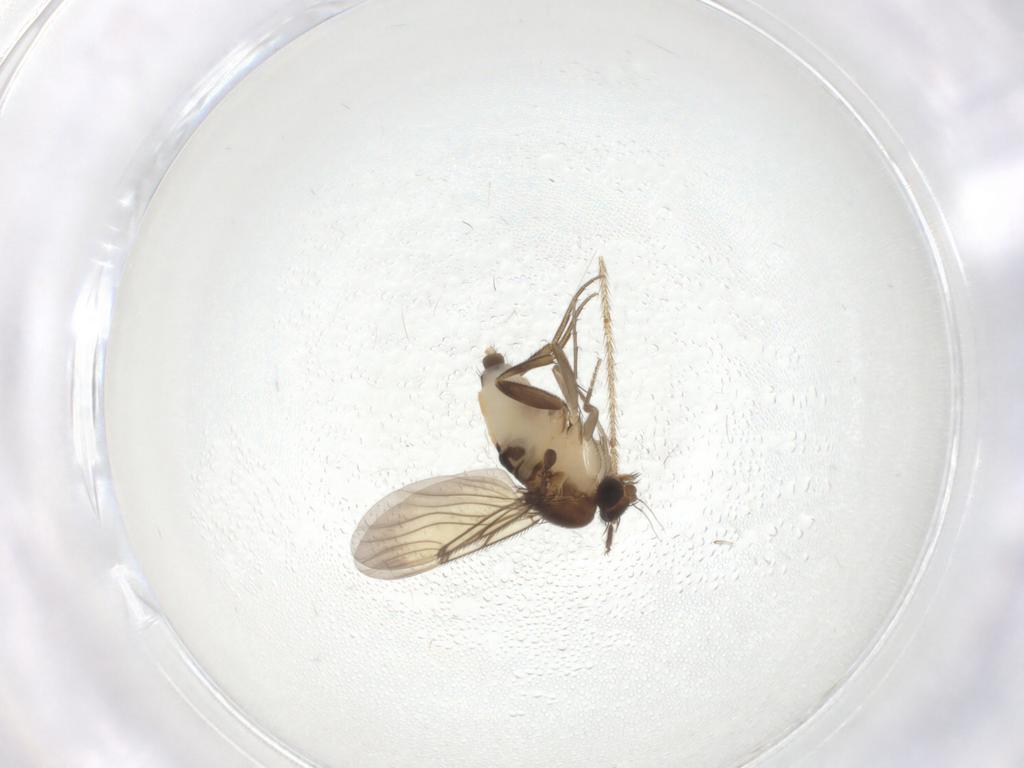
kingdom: Animalia
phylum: Arthropoda
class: Insecta
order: Diptera
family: Phoridae
